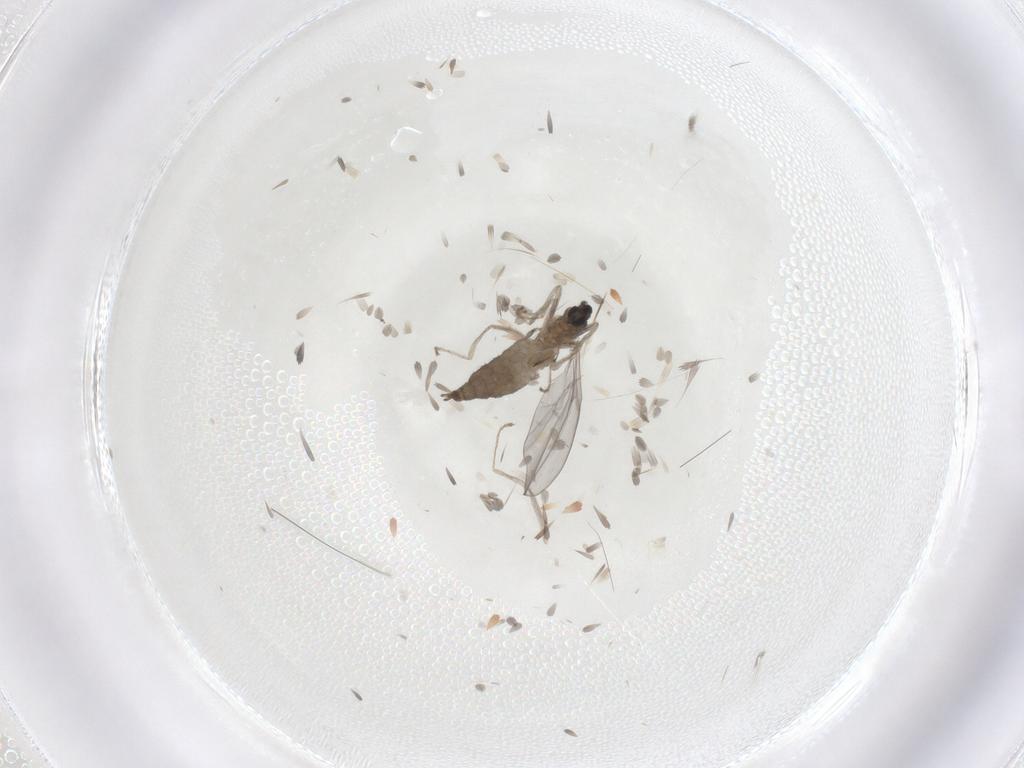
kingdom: Animalia
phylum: Arthropoda
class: Insecta
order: Diptera
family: Cecidomyiidae
